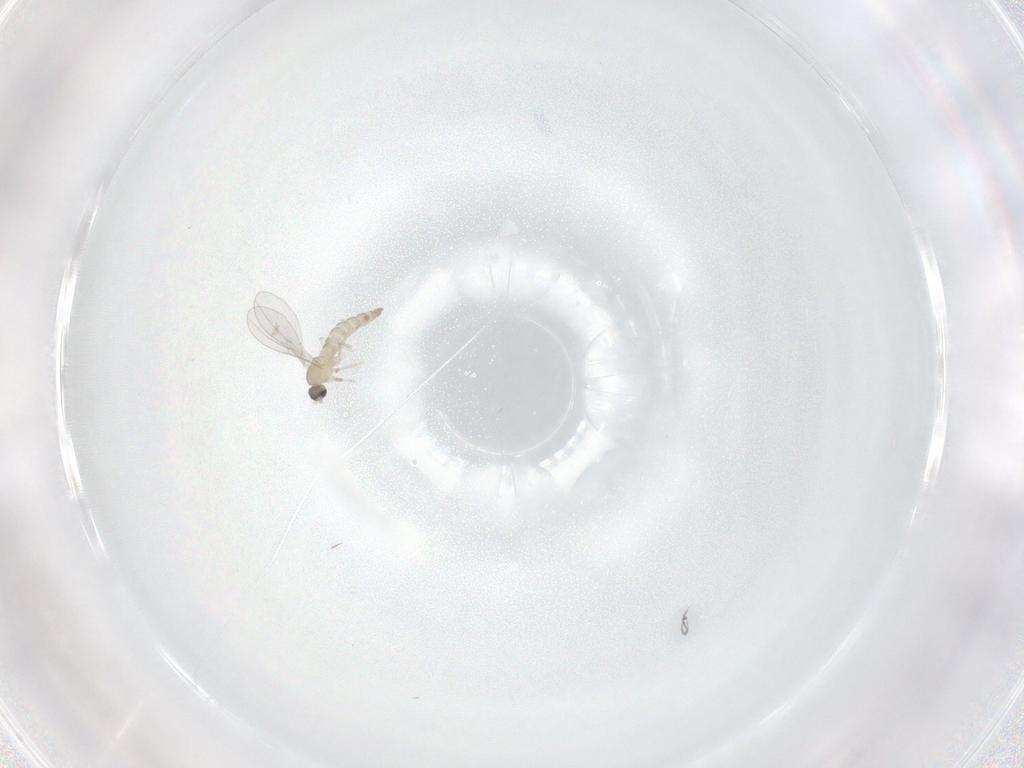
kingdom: Animalia
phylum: Arthropoda
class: Insecta
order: Diptera
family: Cecidomyiidae
